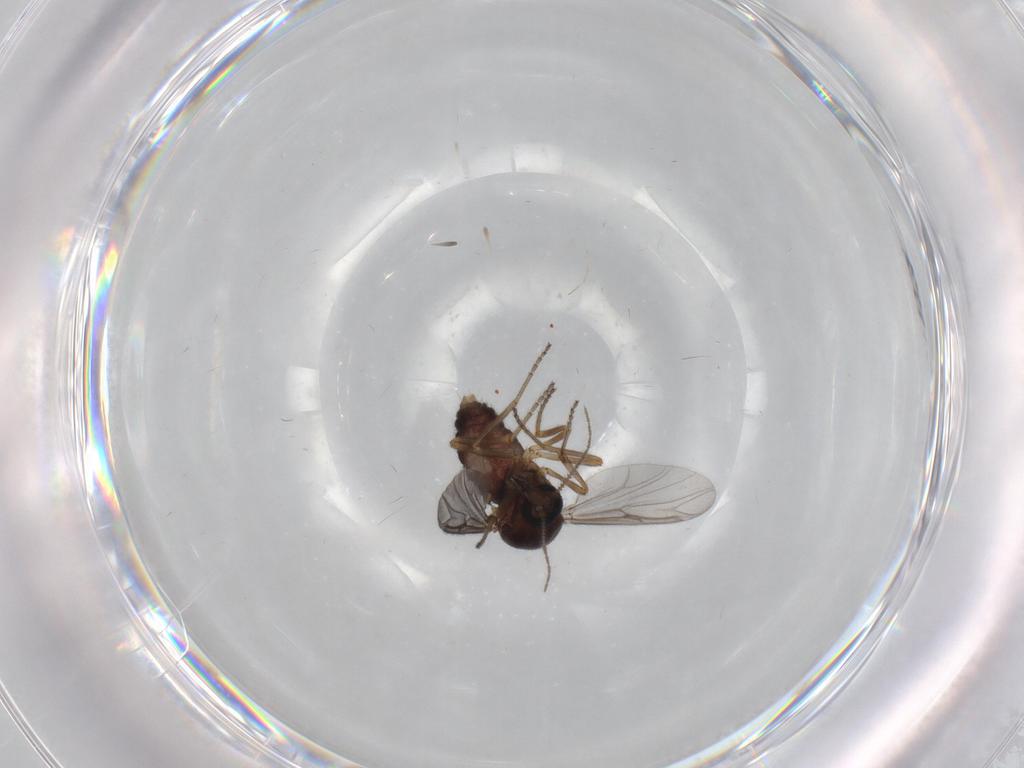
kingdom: Animalia
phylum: Arthropoda
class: Insecta
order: Diptera
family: Ceratopogonidae
